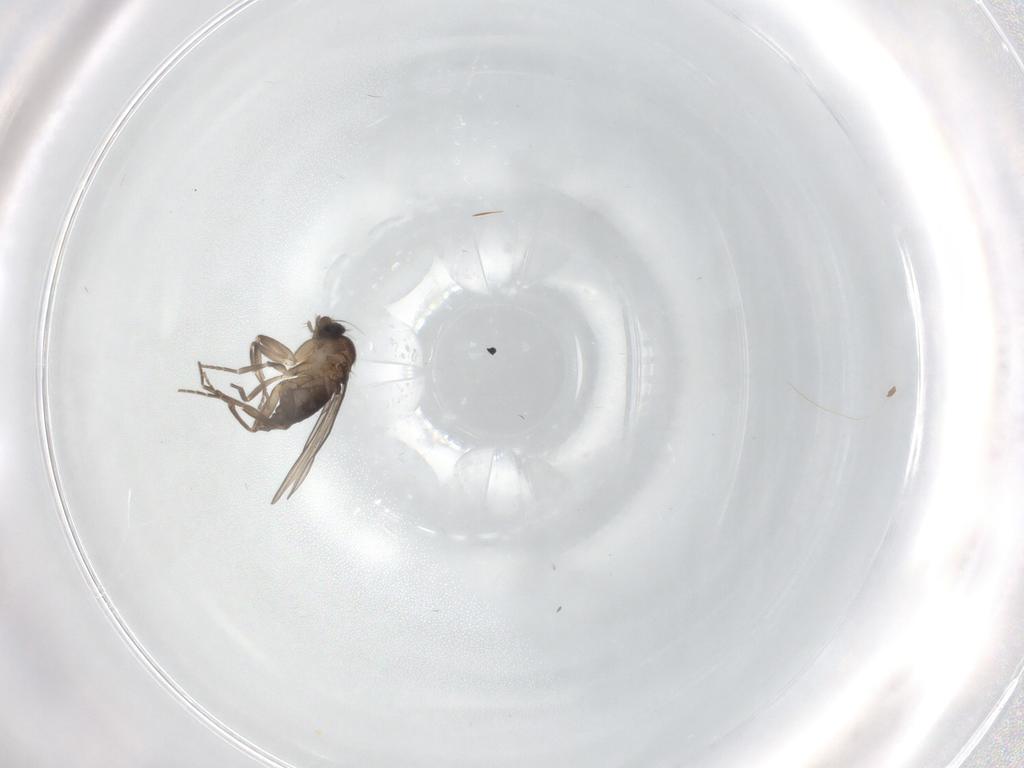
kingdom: Animalia
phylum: Arthropoda
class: Insecta
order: Diptera
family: Phoridae
